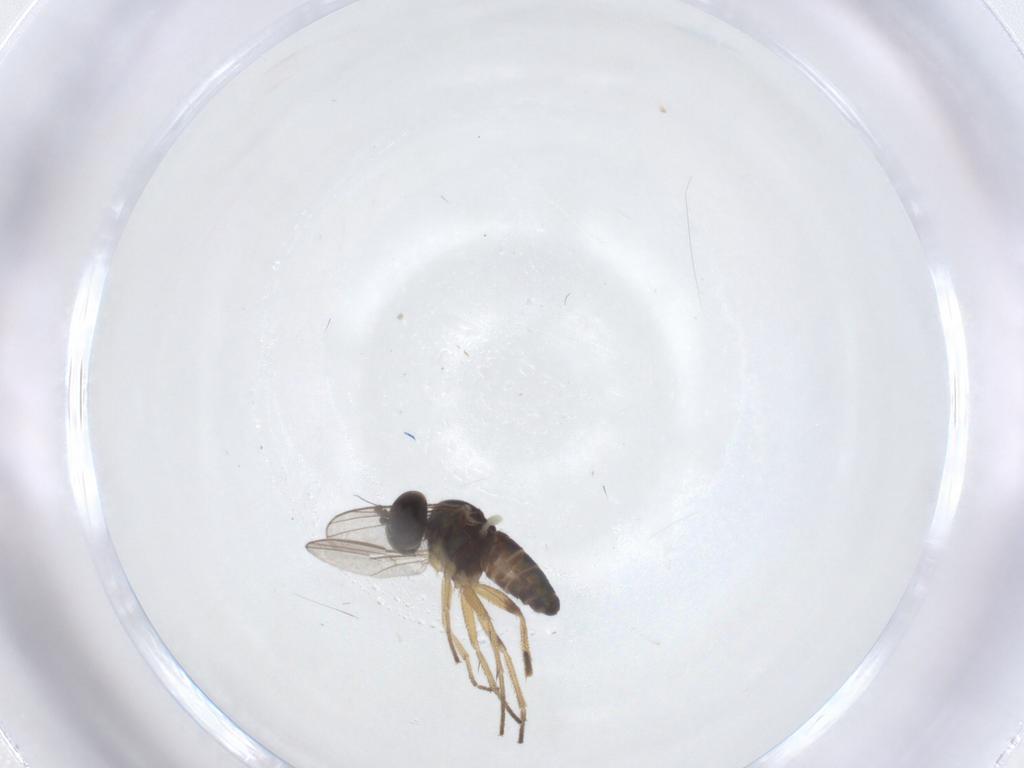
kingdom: Animalia
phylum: Arthropoda
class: Insecta
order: Diptera
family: Dolichopodidae
